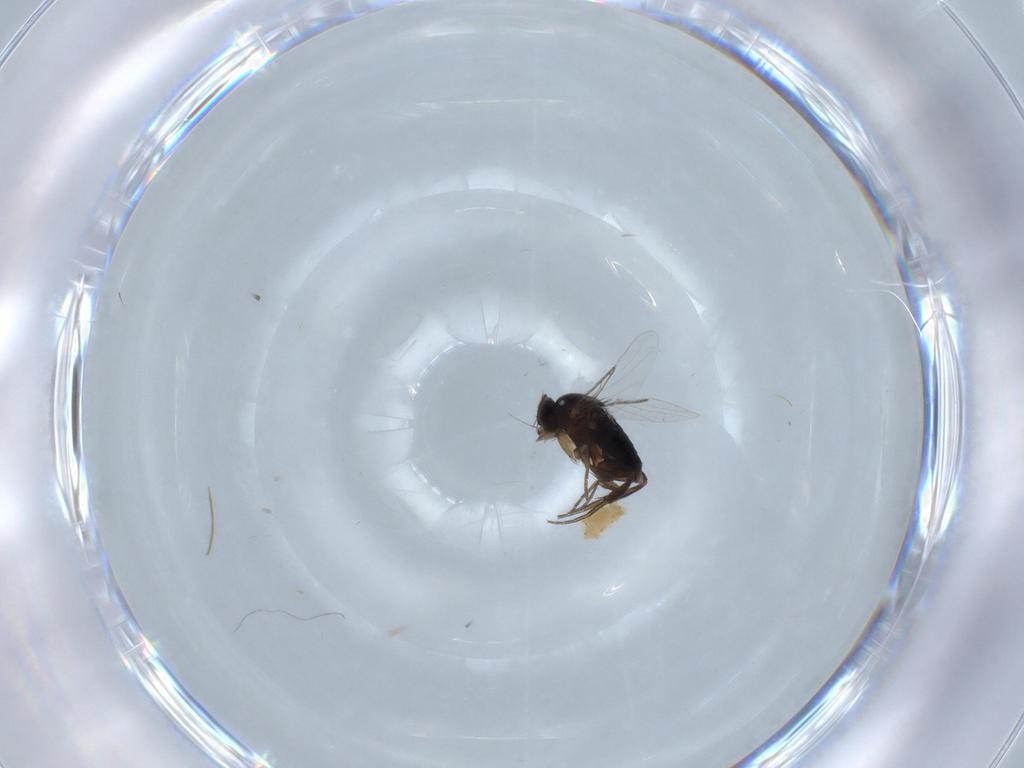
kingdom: Animalia
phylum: Arthropoda
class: Insecta
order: Diptera
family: Phoridae
